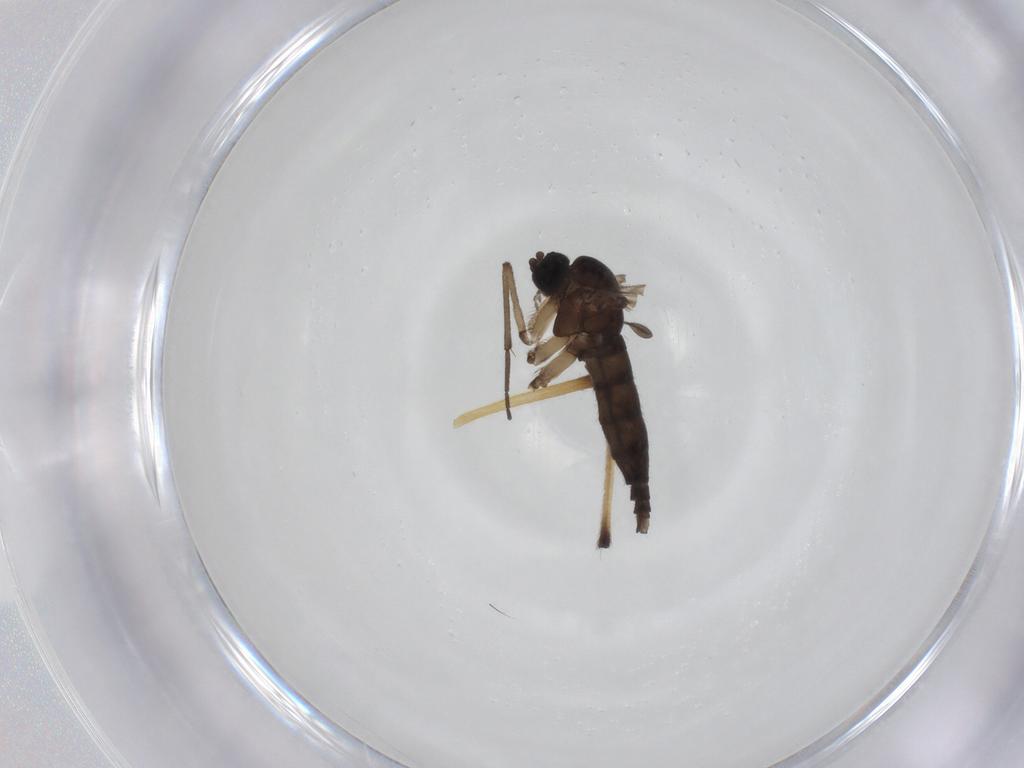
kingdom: Animalia
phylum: Arthropoda
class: Insecta
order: Diptera
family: Sciaridae
